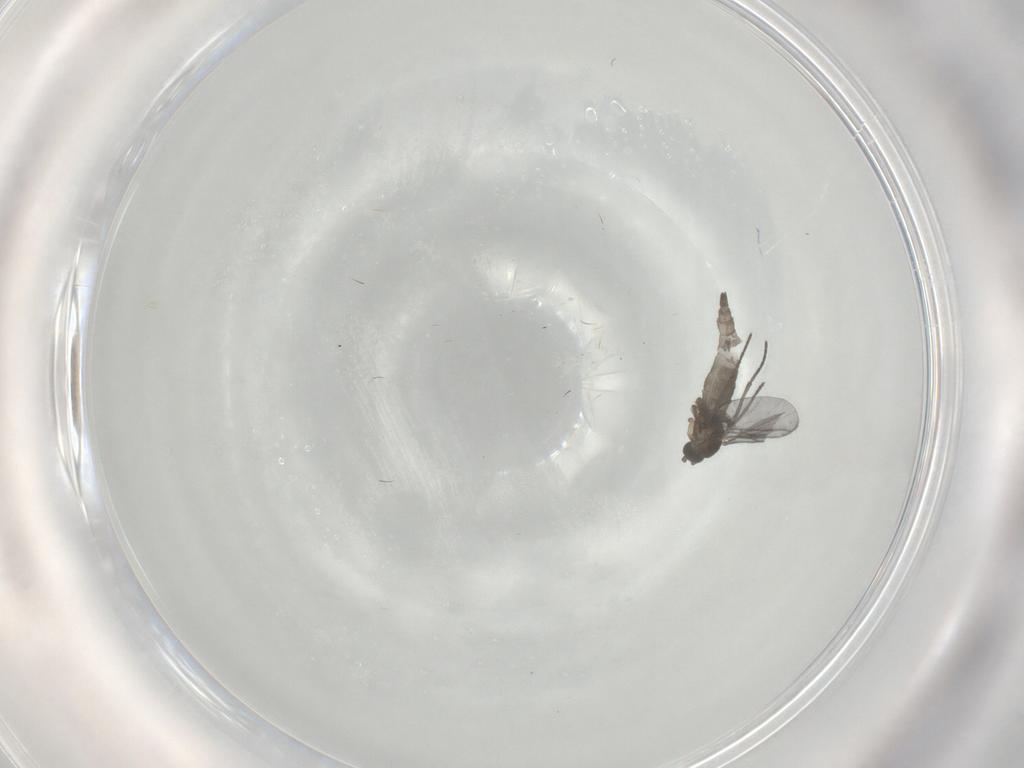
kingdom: Animalia
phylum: Arthropoda
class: Insecta
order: Diptera
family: Sciaridae
